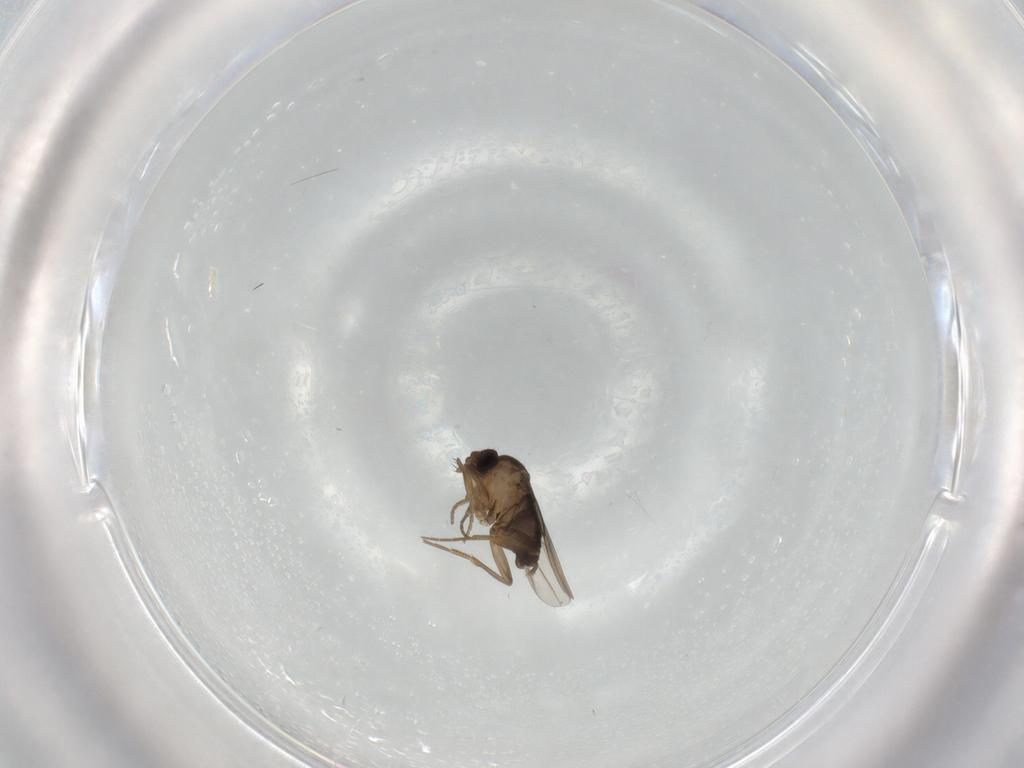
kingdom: Animalia
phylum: Arthropoda
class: Insecta
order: Diptera
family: Phoridae
